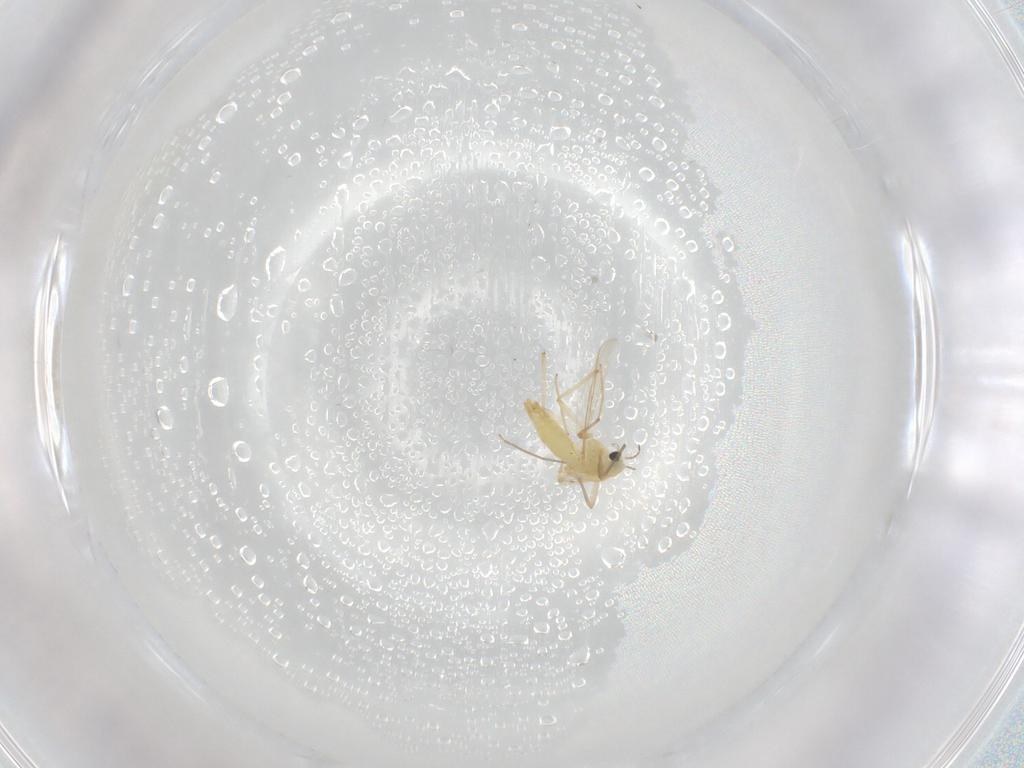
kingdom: Animalia
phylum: Arthropoda
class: Insecta
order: Diptera
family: Chironomidae
